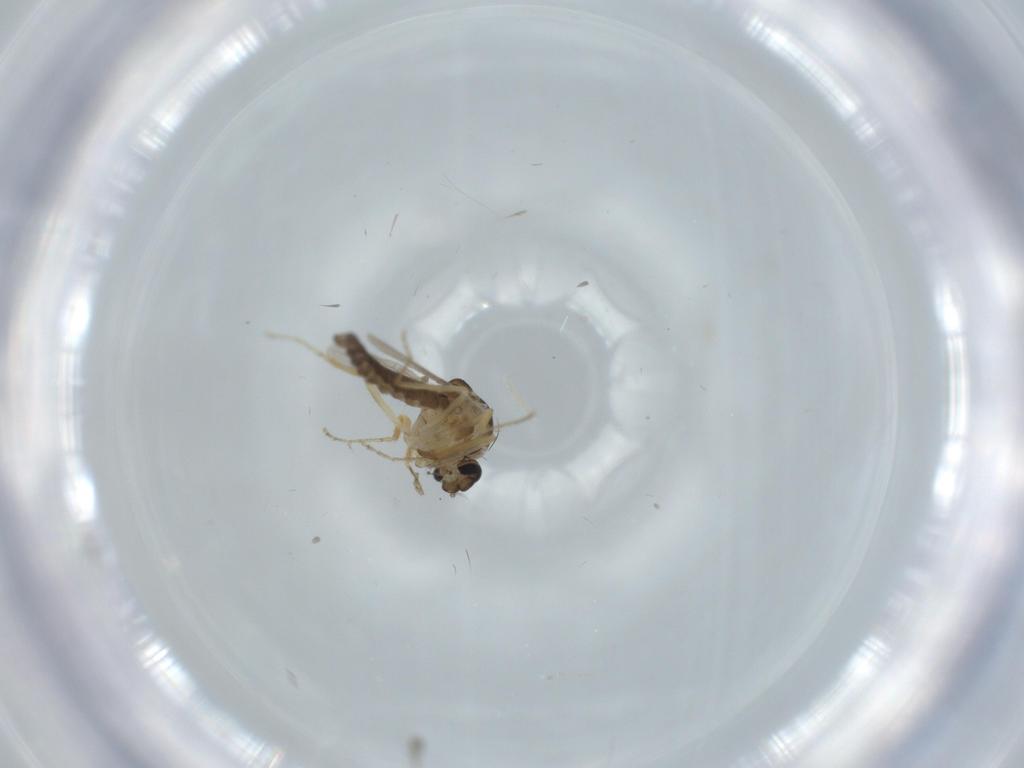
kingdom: Animalia
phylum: Arthropoda
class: Insecta
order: Diptera
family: Ceratopogonidae
